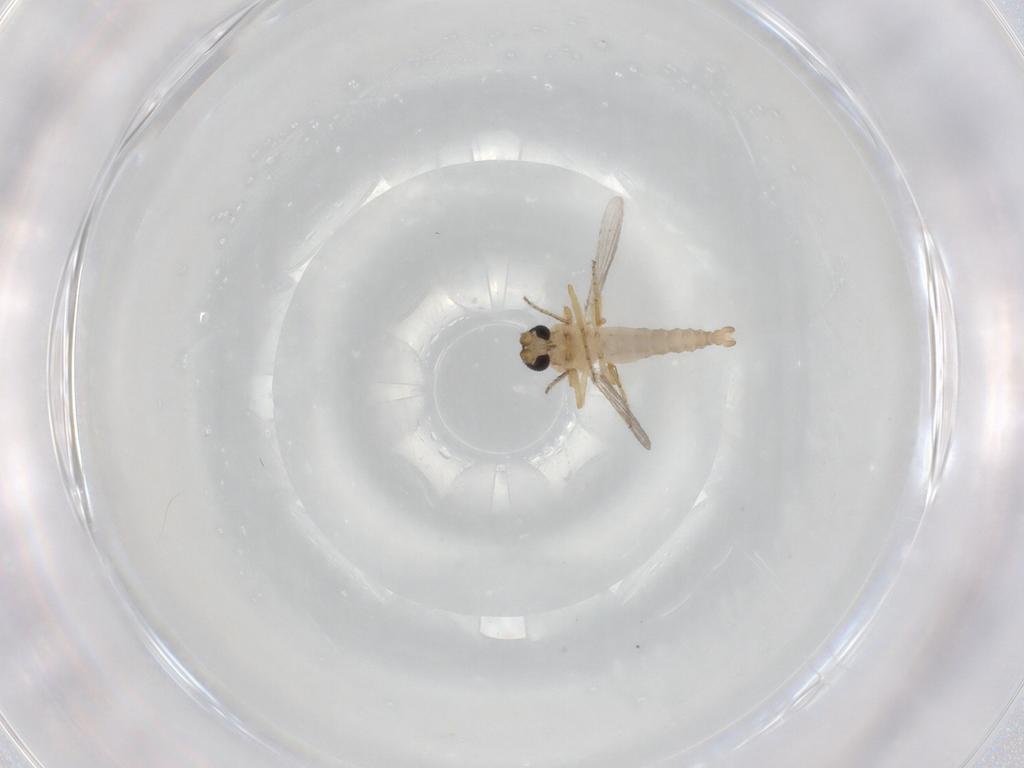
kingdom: Animalia
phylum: Arthropoda
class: Insecta
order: Diptera
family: Ceratopogonidae
